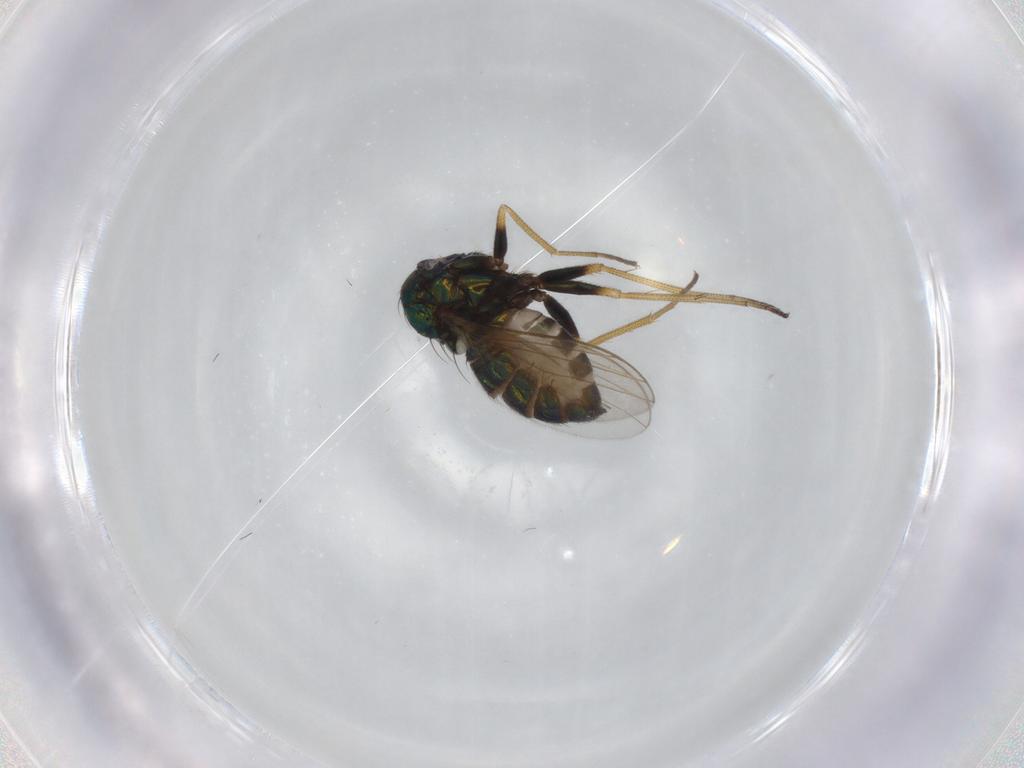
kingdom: Animalia
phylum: Arthropoda
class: Insecta
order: Diptera
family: Dolichopodidae
